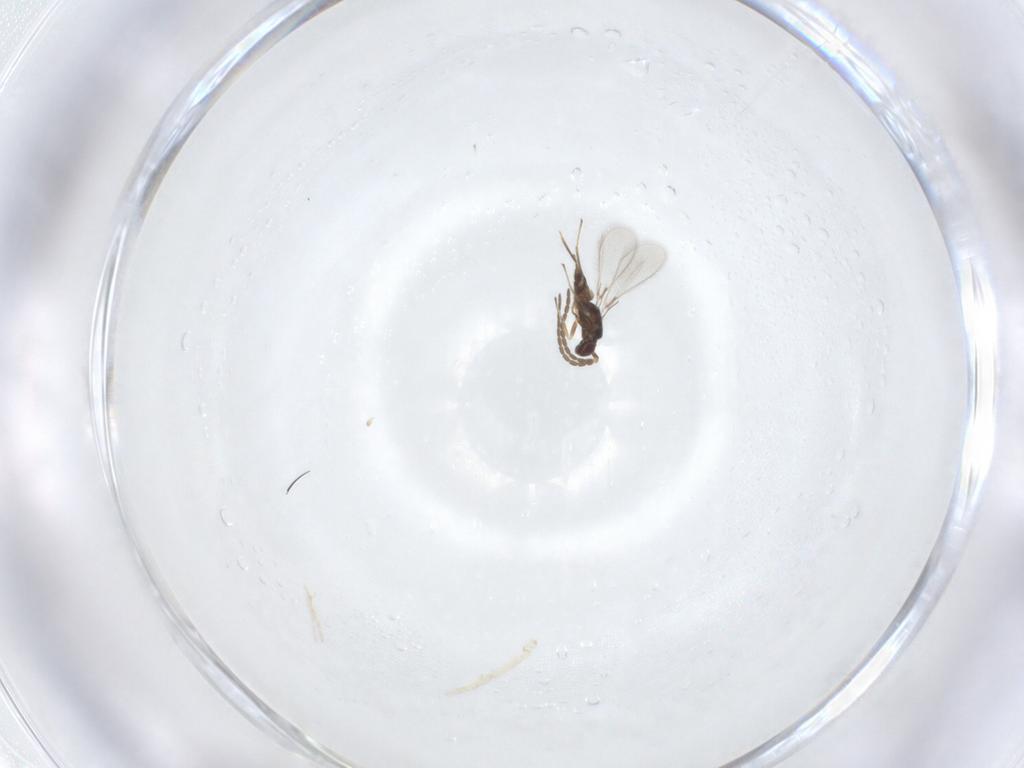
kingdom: Animalia
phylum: Arthropoda
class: Insecta
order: Hymenoptera
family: Mymaridae
